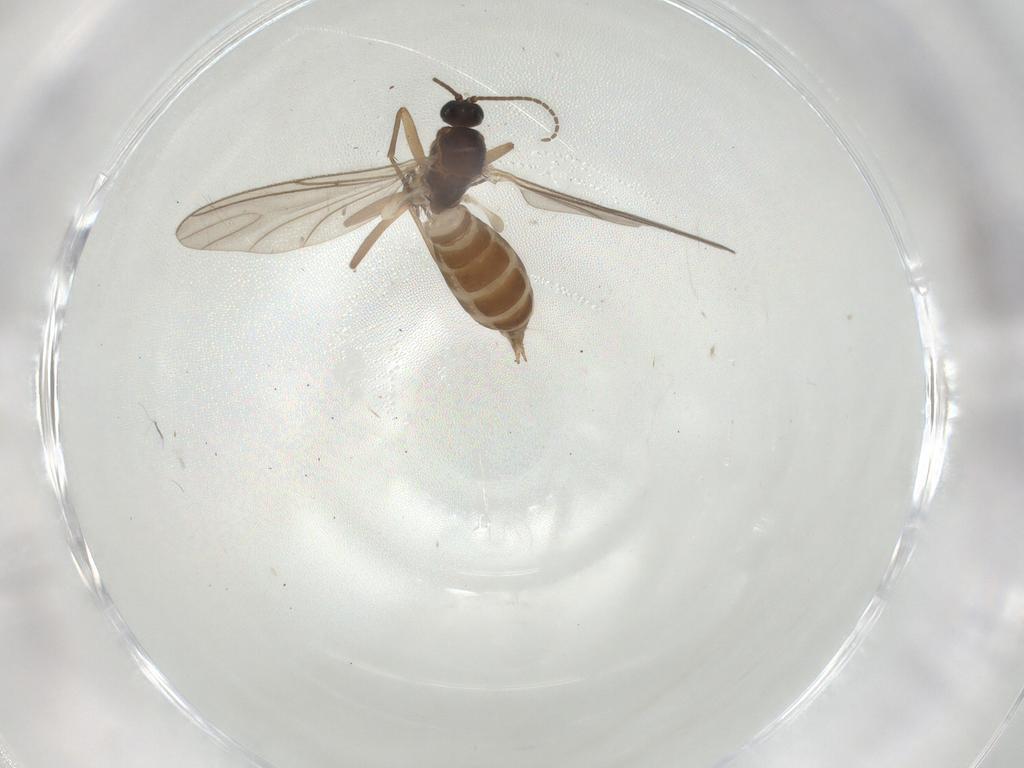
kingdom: Animalia
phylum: Arthropoda
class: Insecta
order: Diptera
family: Sciaridae
